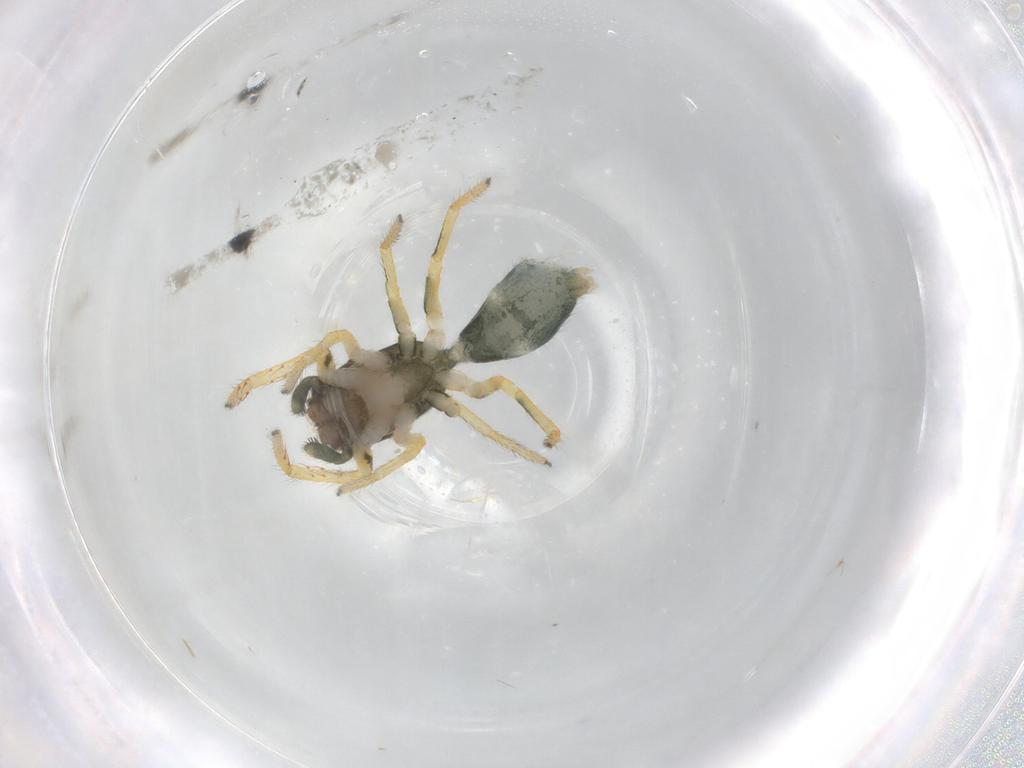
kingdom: Animalia
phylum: Arthropoda
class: Arachnida
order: Araneae
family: Salticidae
